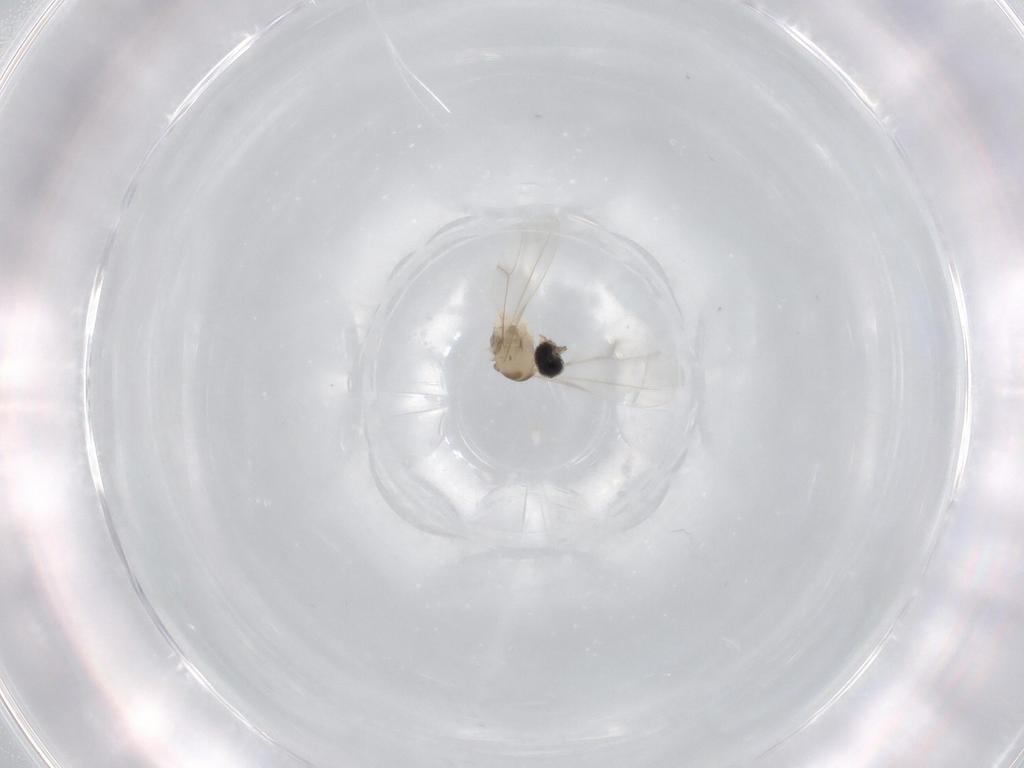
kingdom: Animalia
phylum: Arthropoda
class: Insecta
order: Diptera
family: Cecidomyiidae
